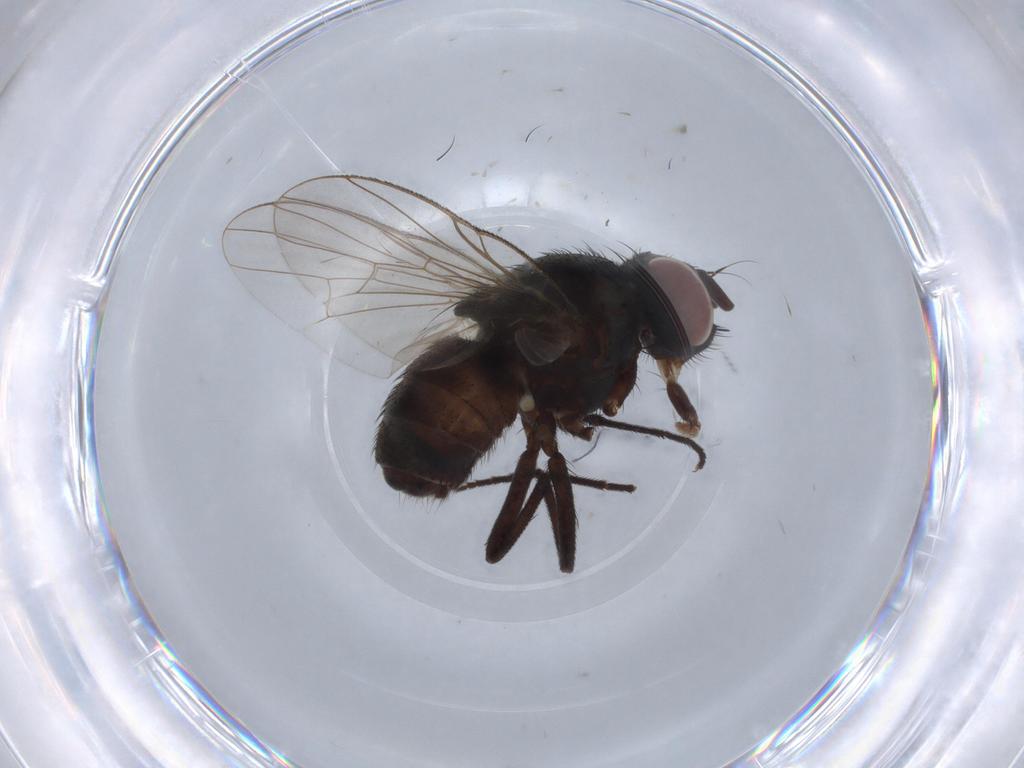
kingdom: Animalia
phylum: Arthropoda
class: Insecta
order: Diptera
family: Muscidae
